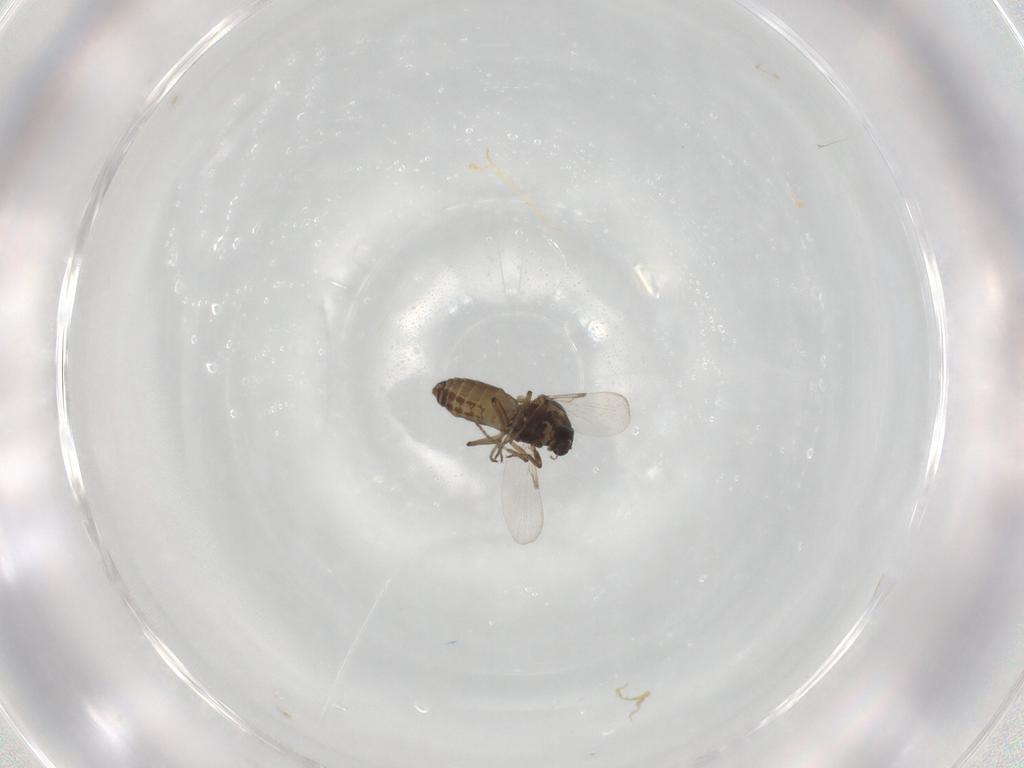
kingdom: Animalia
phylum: Arthropoda
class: Insecta
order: Diptera
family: Ceratopogonidae
